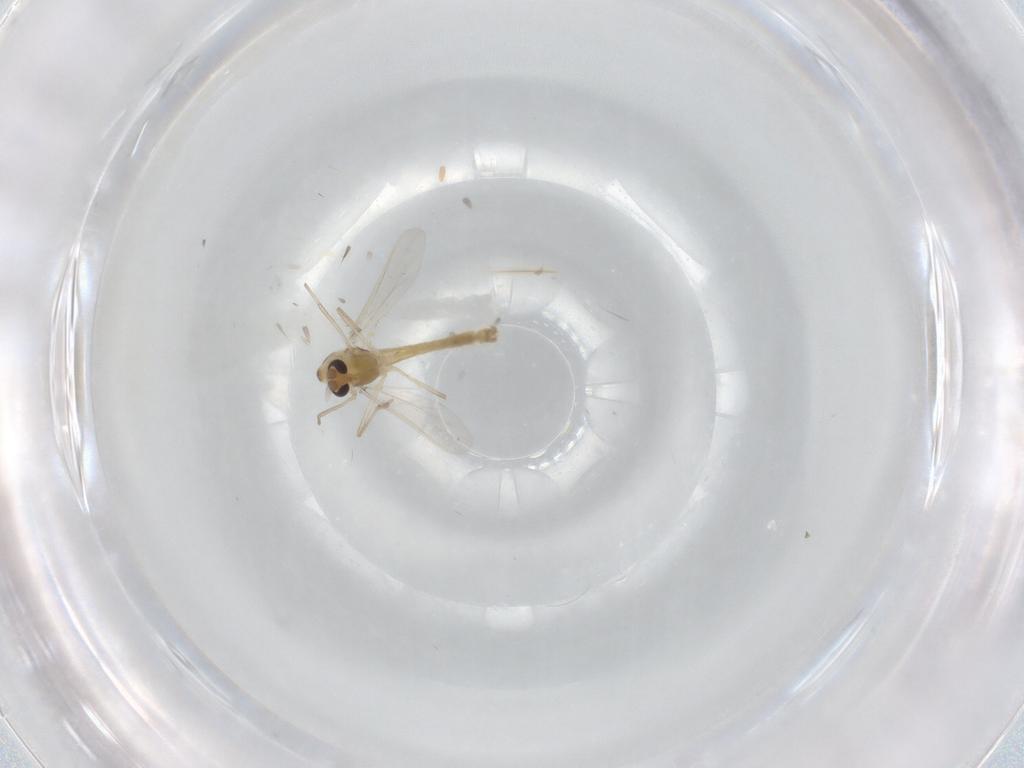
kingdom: Animalia
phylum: Arthropoda
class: Insecta
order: Diptera
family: Chironomidae
